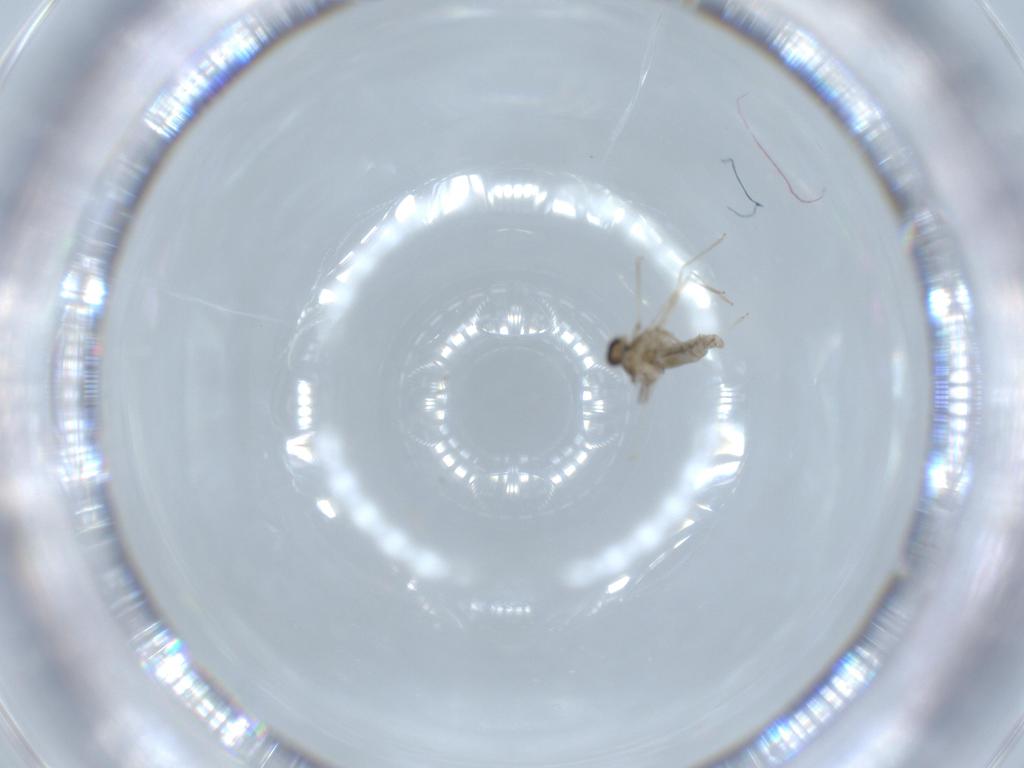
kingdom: Animalia
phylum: Arthropoda
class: Insecta
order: Diptera
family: Cecidomyiidae
